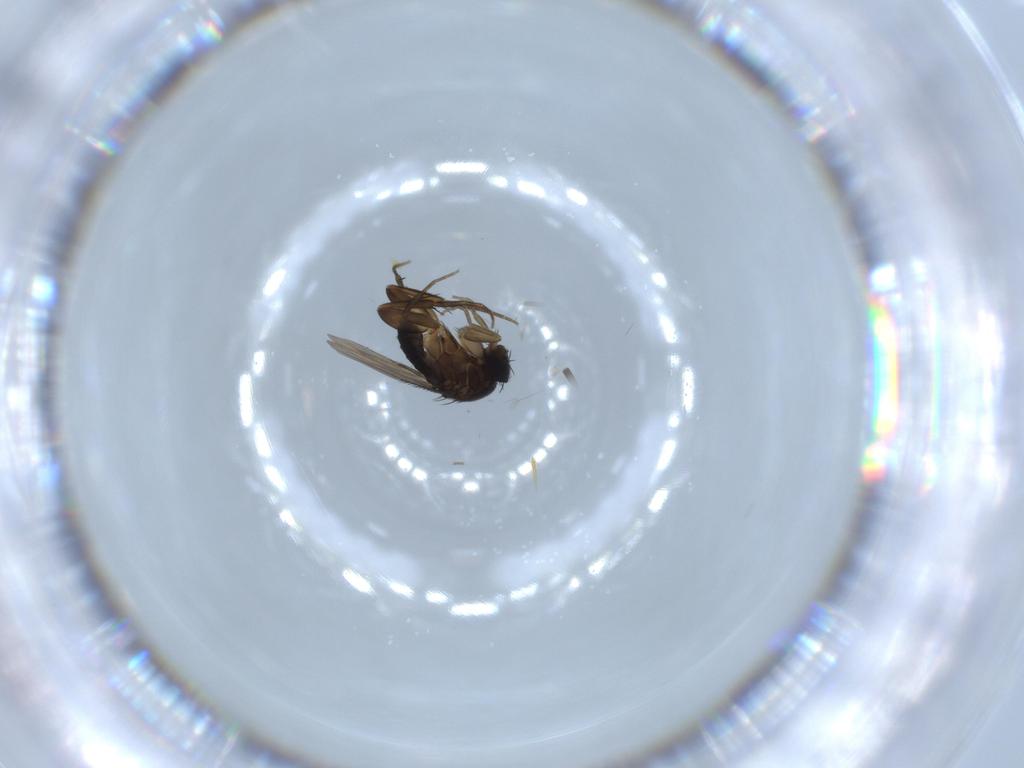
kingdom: Animalia
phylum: Arthropoda
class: Insecta
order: Diptera
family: Phoridae
